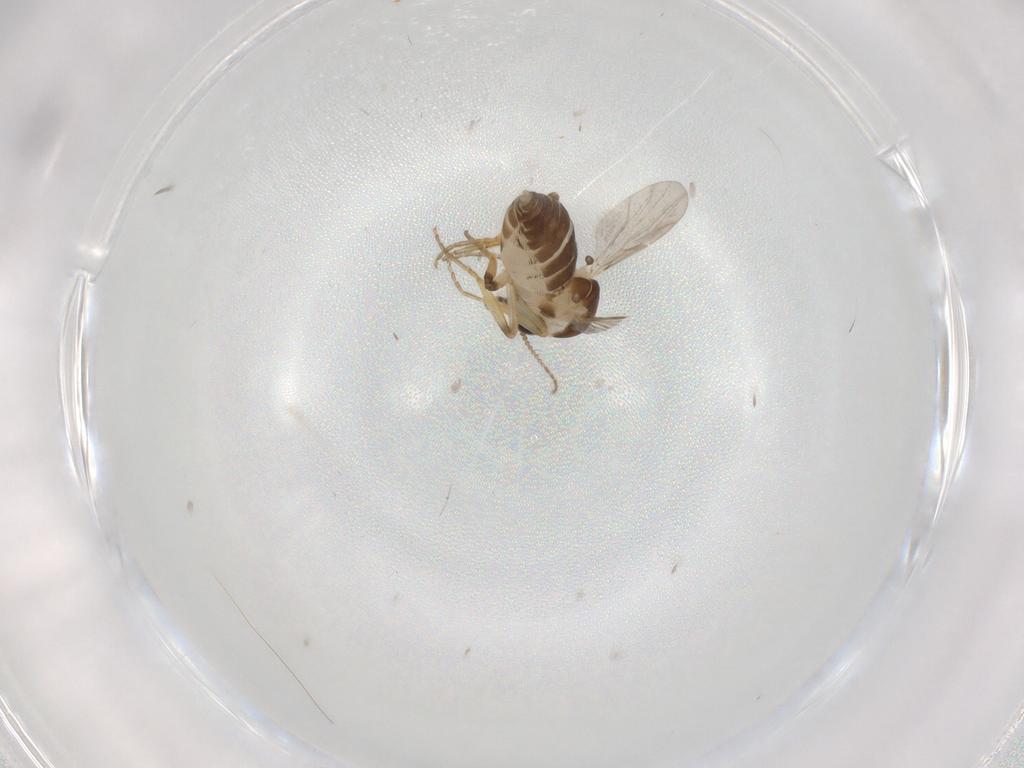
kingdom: Animalia
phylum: Arthropoda
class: Insecta
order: Diptera
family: Ceratopogonidae
